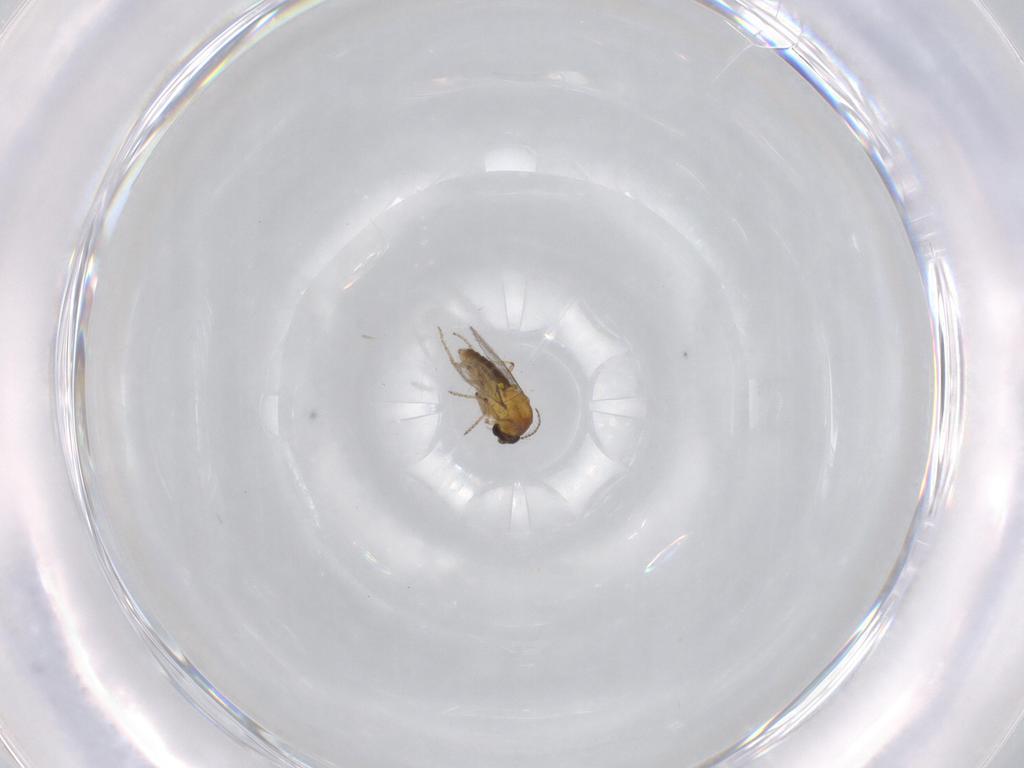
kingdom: Animalia
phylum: Arthropoda
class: Insecta
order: Diptera
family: Ceratopogonidae
